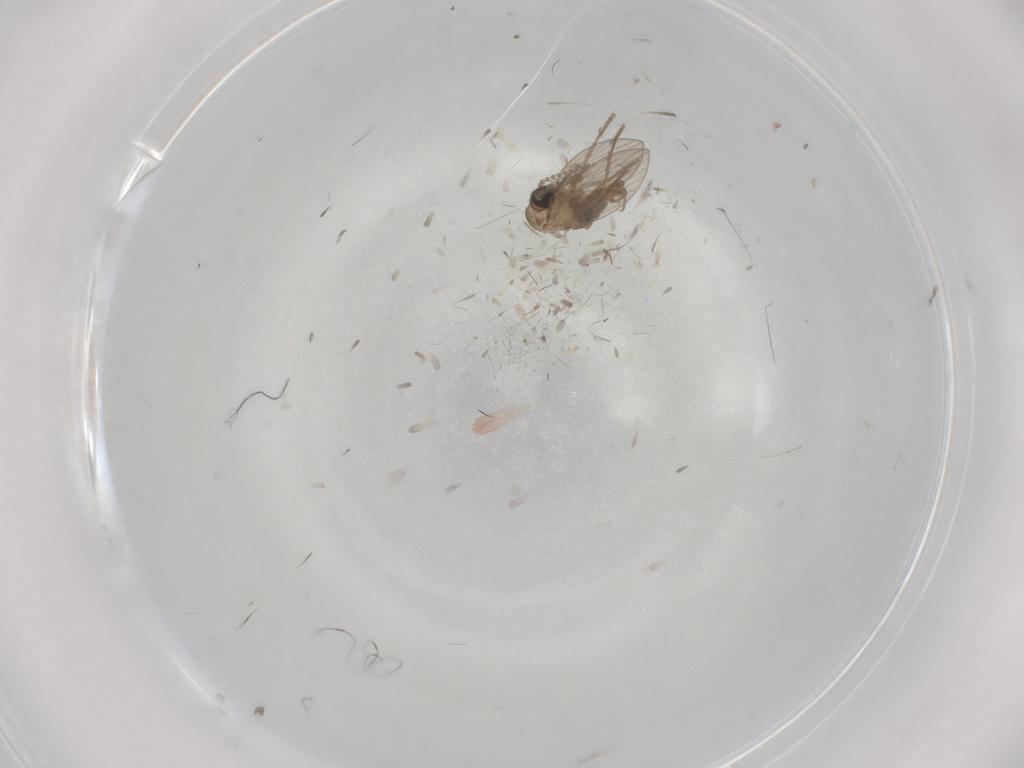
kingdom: Animalia
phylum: Arthropoda
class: Insecta
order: Diptera
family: Psychodidae
